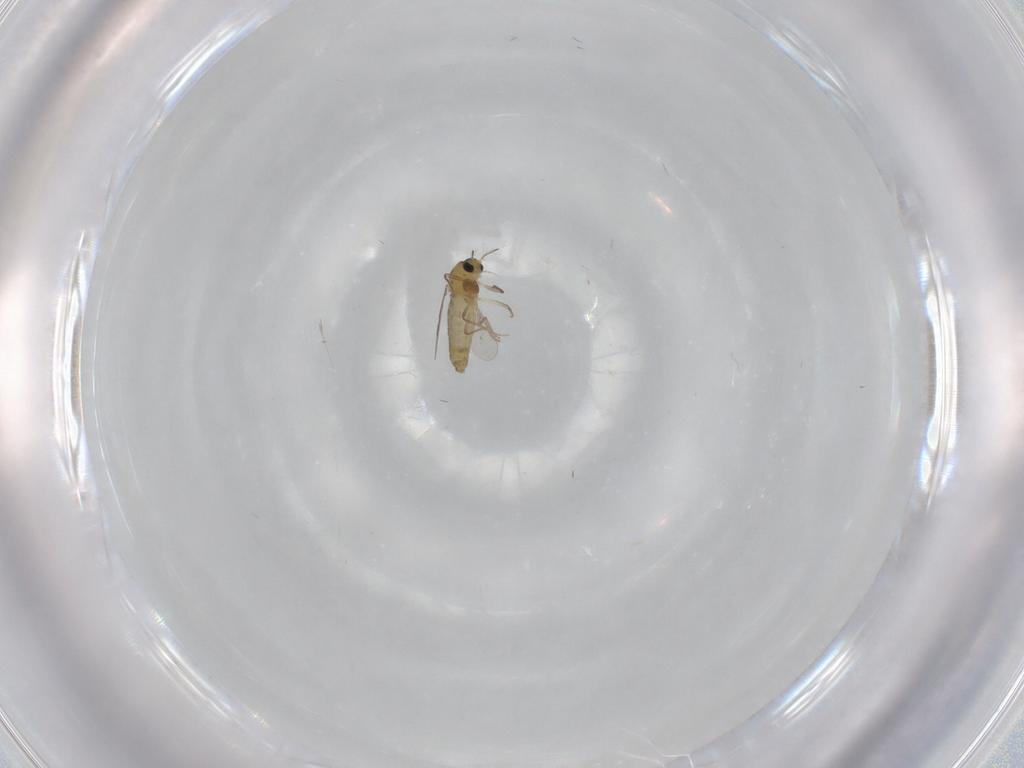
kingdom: Animalia
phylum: Arthropoda
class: Insecta
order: Diptera
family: Chironomidae
